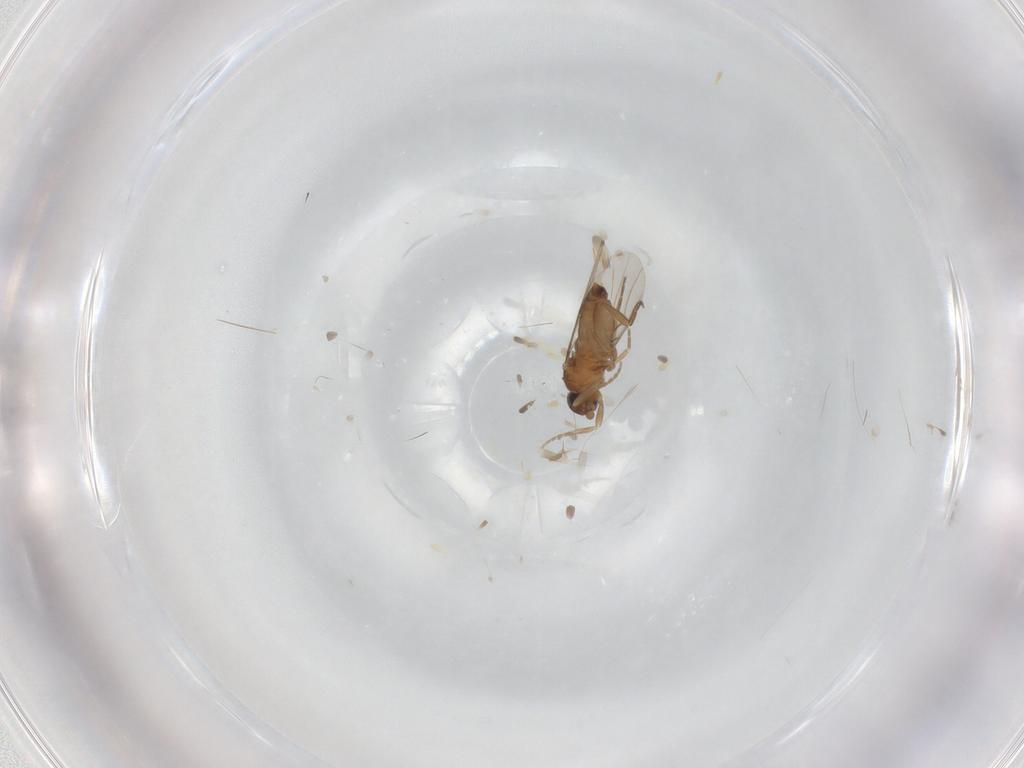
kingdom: Animalia
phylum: Arthropoda
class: Insecta
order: Diptera
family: Phoridae
